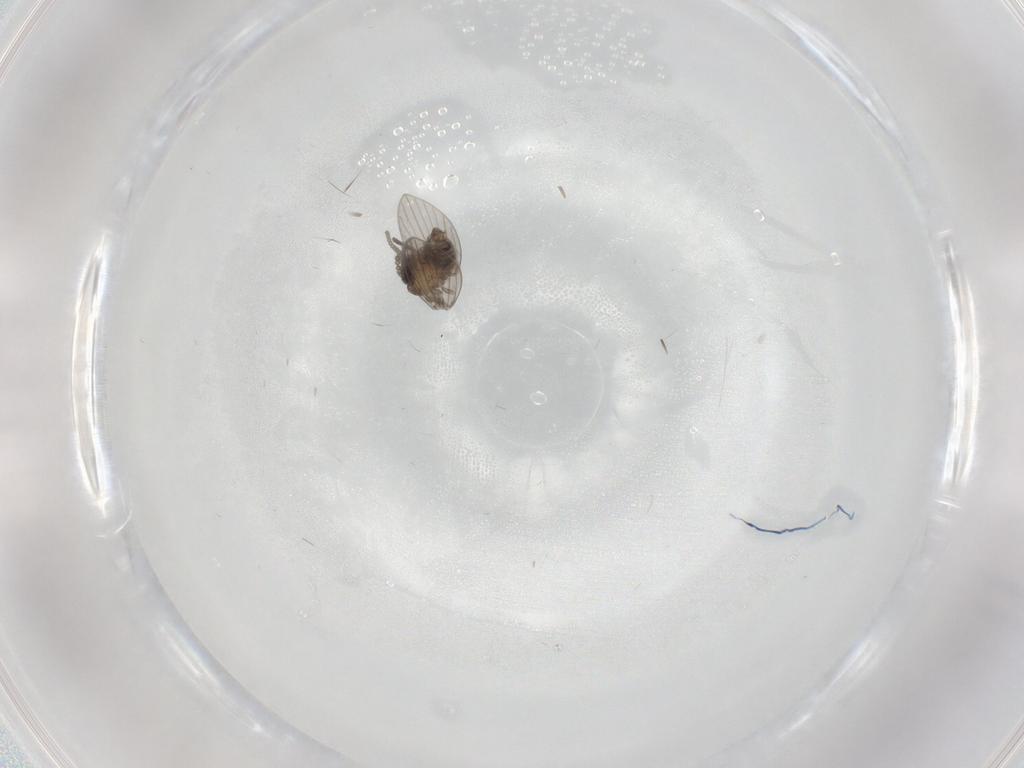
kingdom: Animalia
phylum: Arthropoda
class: Insecta
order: Diptera
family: Psychodidae
